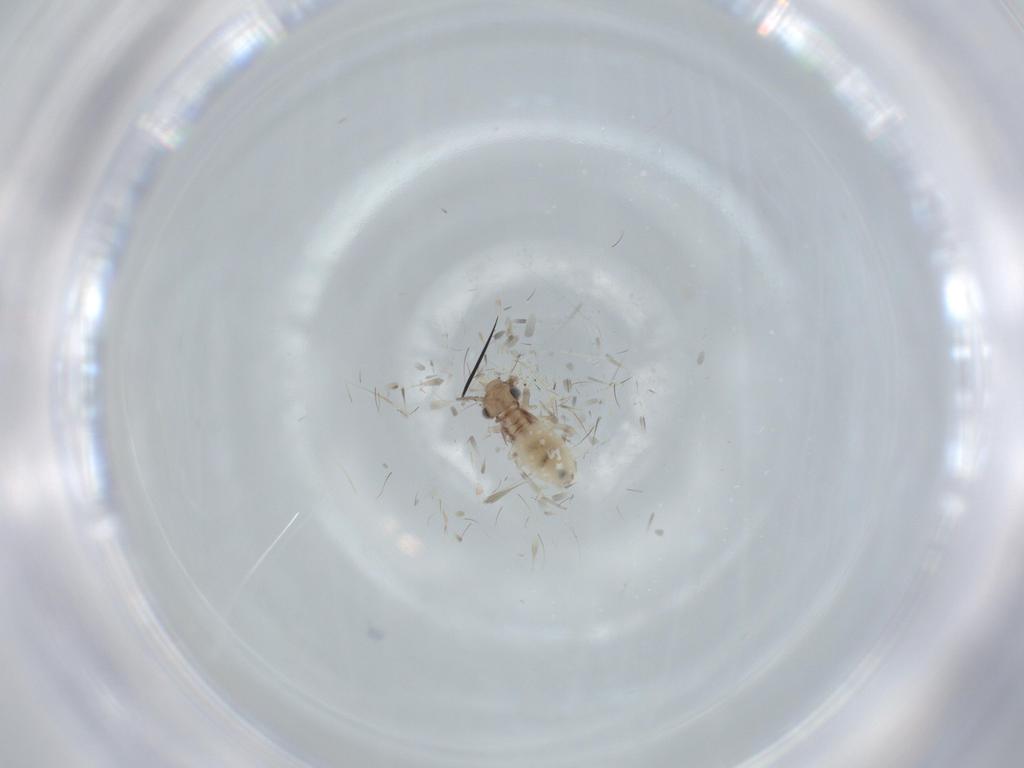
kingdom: Animalia
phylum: Arthropoda
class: Insecta
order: Psocodea
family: Lepidopsocidae
